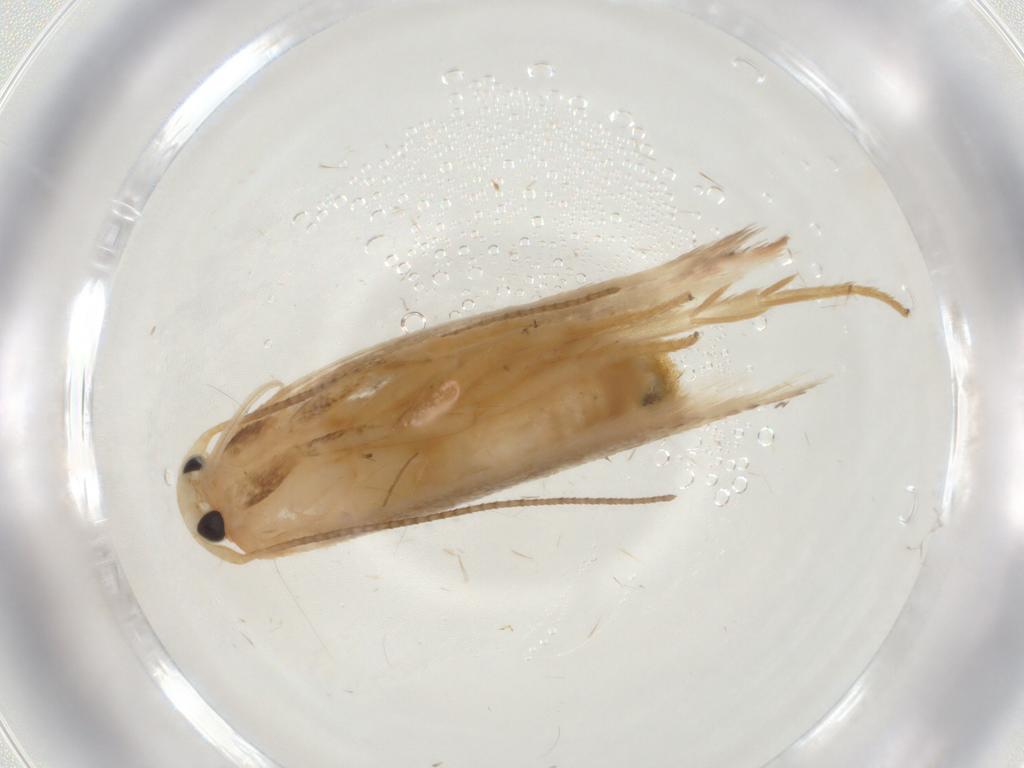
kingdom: Animalia
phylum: Arthropoda
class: Insecta
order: Lepidoptera
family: Geometridae
